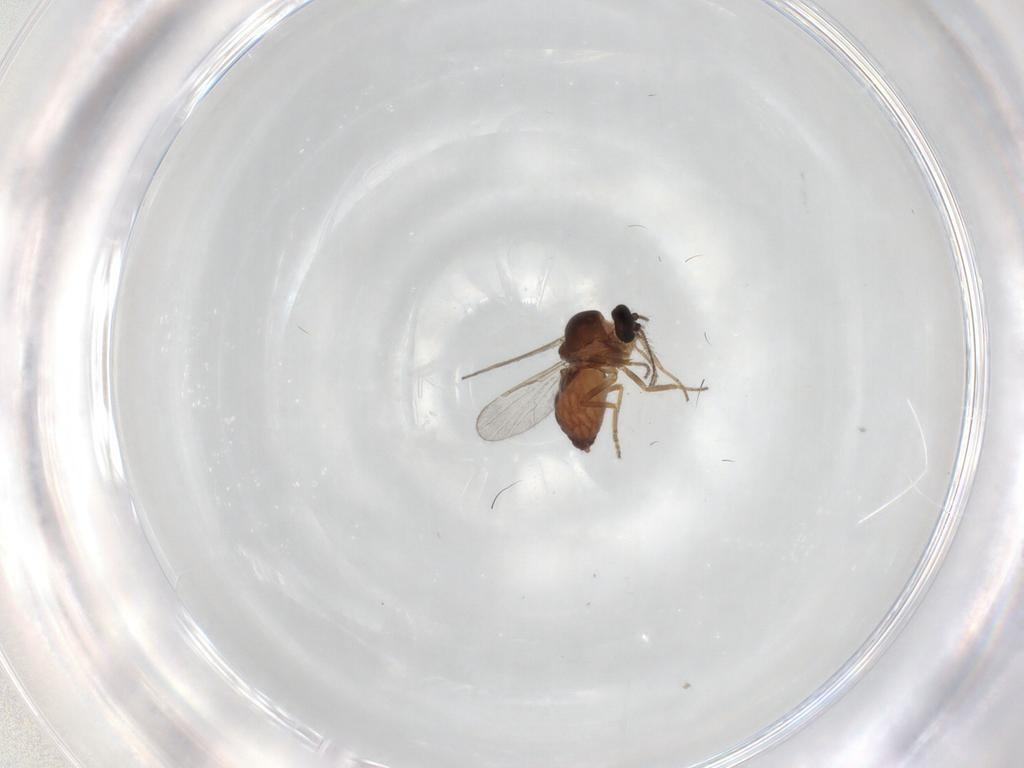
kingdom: Animalia
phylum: Arthropoda
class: Insecta
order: Diptera
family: Ceratopogonidae
